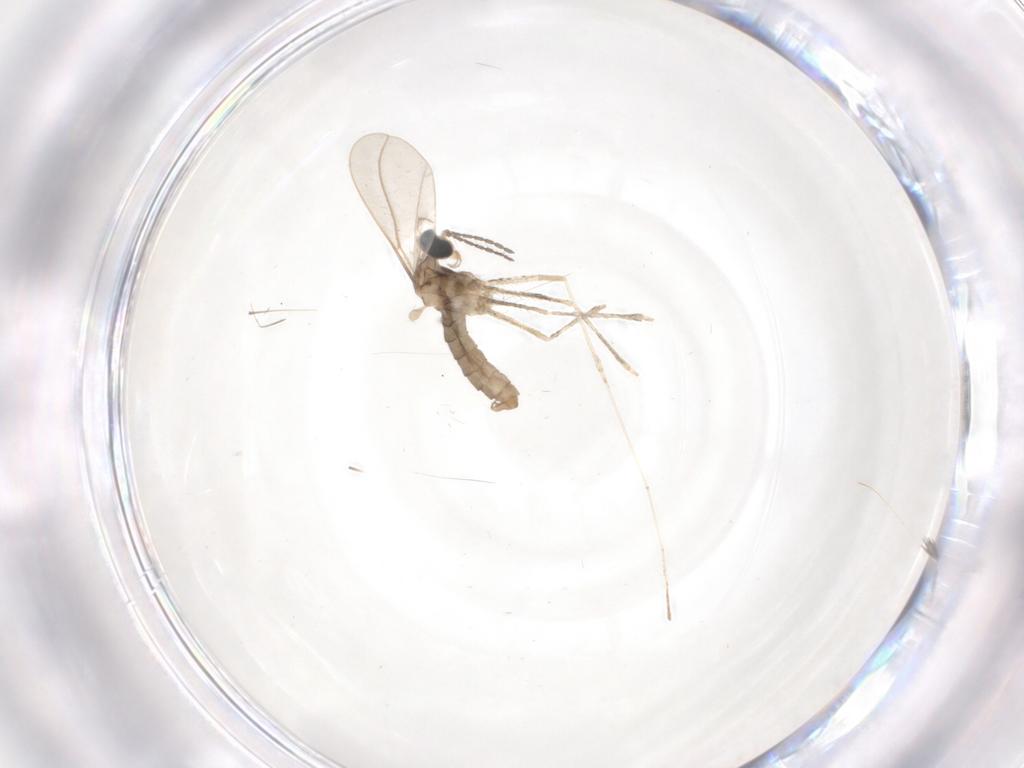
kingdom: Animalia
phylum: Arthropoda
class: Insecta
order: Diptera
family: Cecidomyiidae
